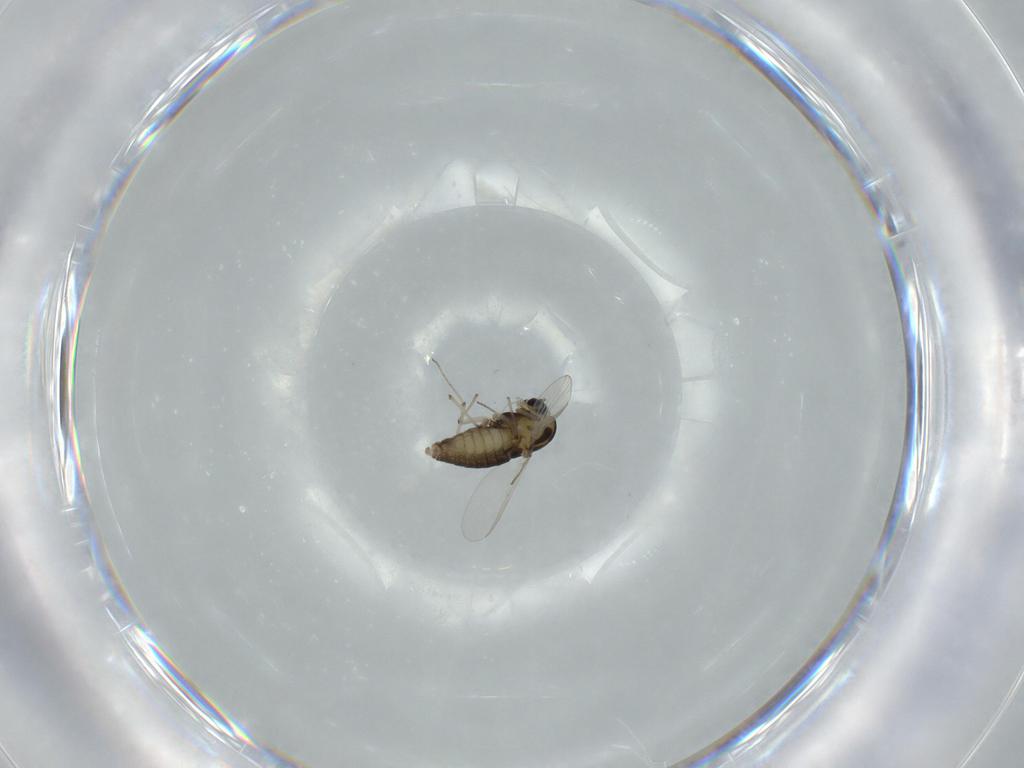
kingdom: Animalia
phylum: Arthropoda
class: Insecta
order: Diptera
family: Culicidae
